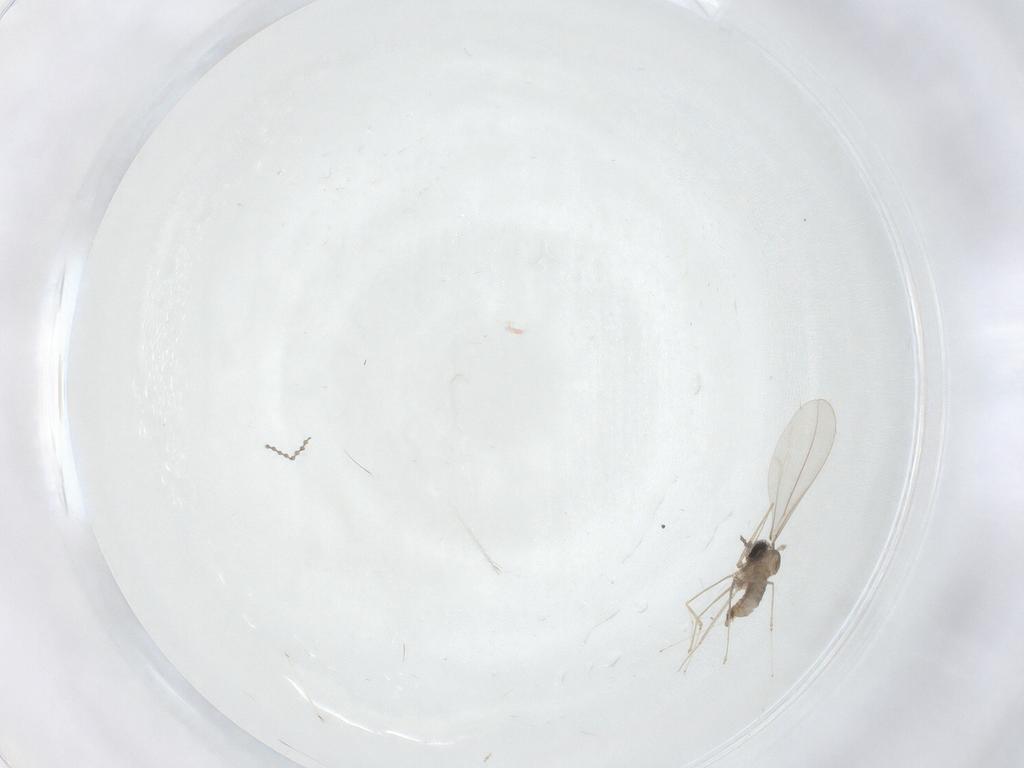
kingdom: Animalia
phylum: Arthropoda
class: Insecta
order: Diptera
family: Cecidomyiidae
